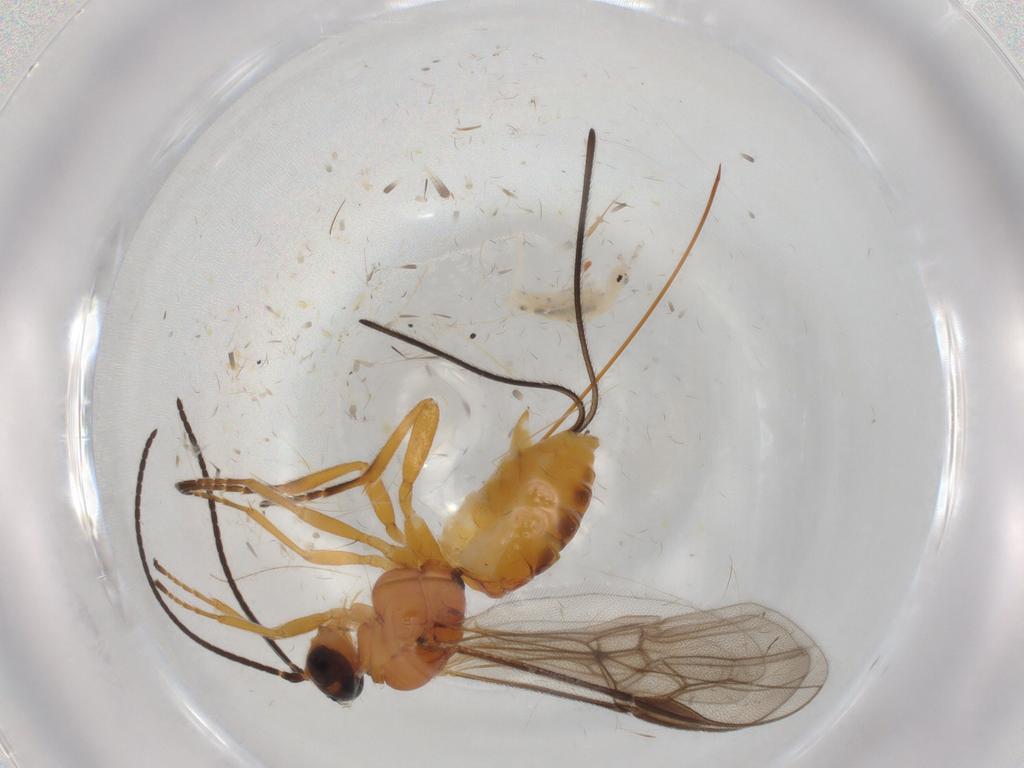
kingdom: Animalia
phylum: Arthropoda
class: Insecta
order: Hymenoptera
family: Braconidae
